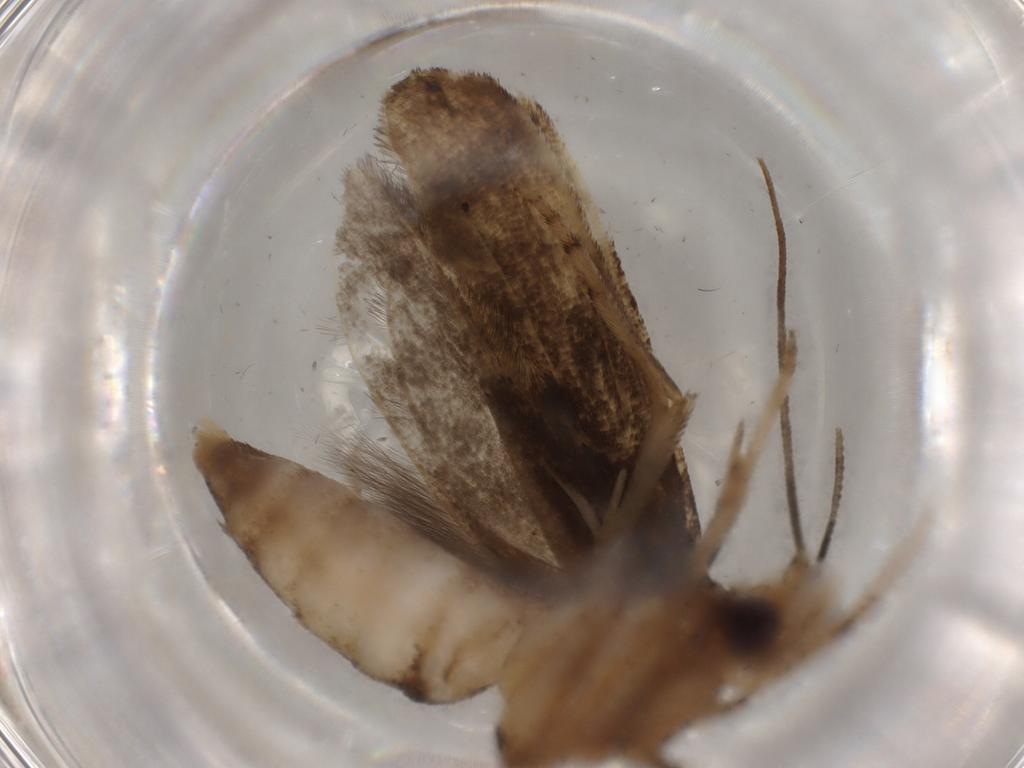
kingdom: Animalia
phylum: Arthropoda
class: Insecta
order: Lepidoptera
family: Yponomeutidae
